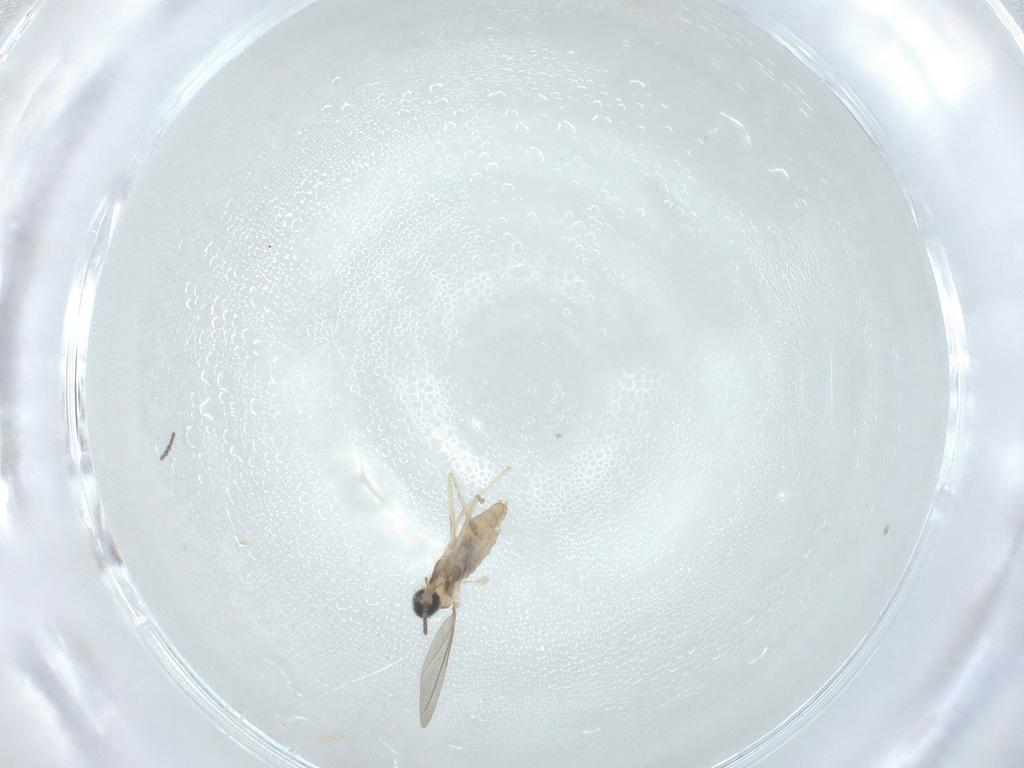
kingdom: Animalia
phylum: Arthropoda
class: Insecta
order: Diptera
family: Cecidomyiidae
